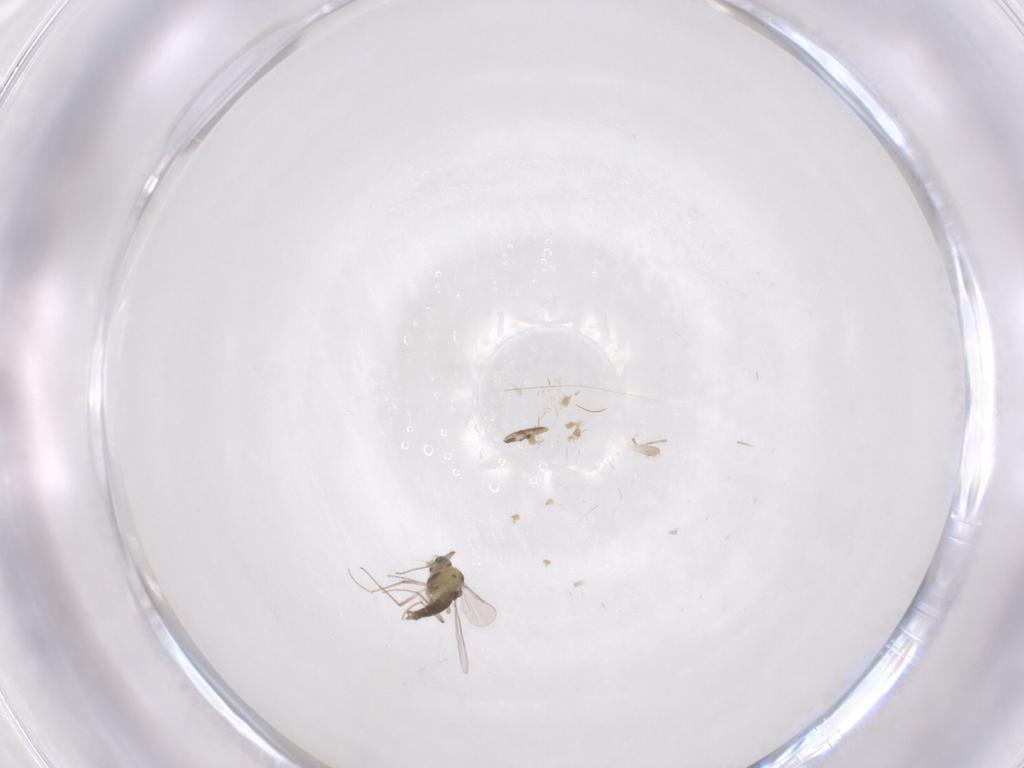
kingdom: Animalia
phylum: Arthropoda
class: Insecta
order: Diptera
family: Chironomidae
